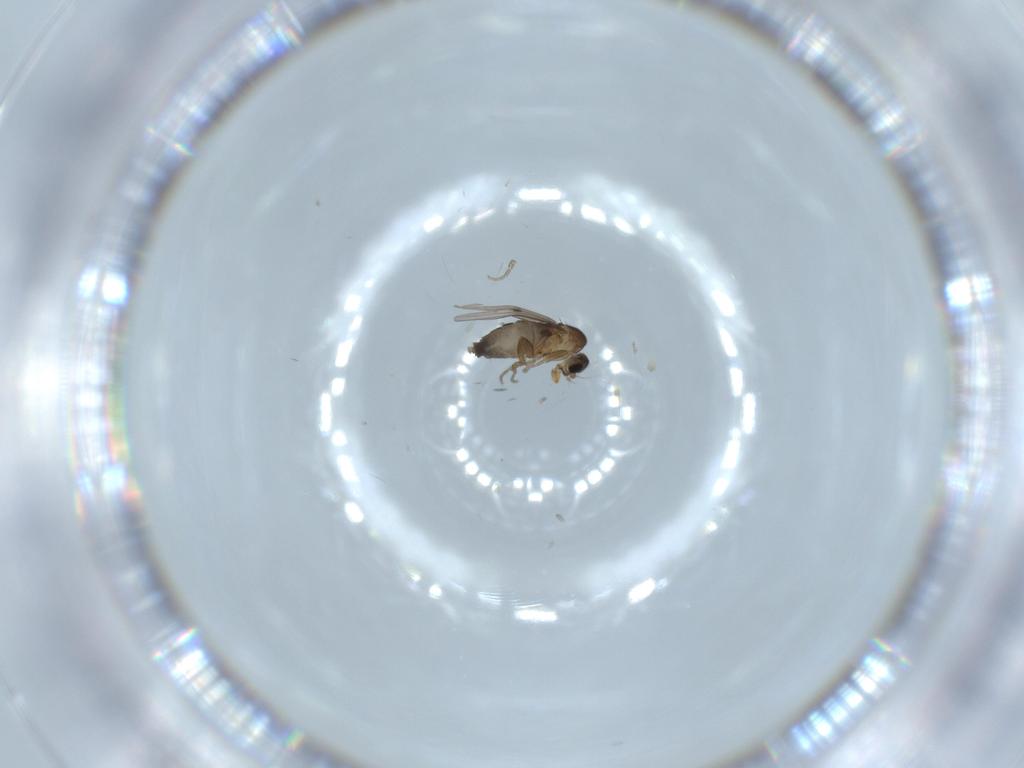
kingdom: Animalia
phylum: Arthropoda
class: Insecta
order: Diptera
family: Phoridae
